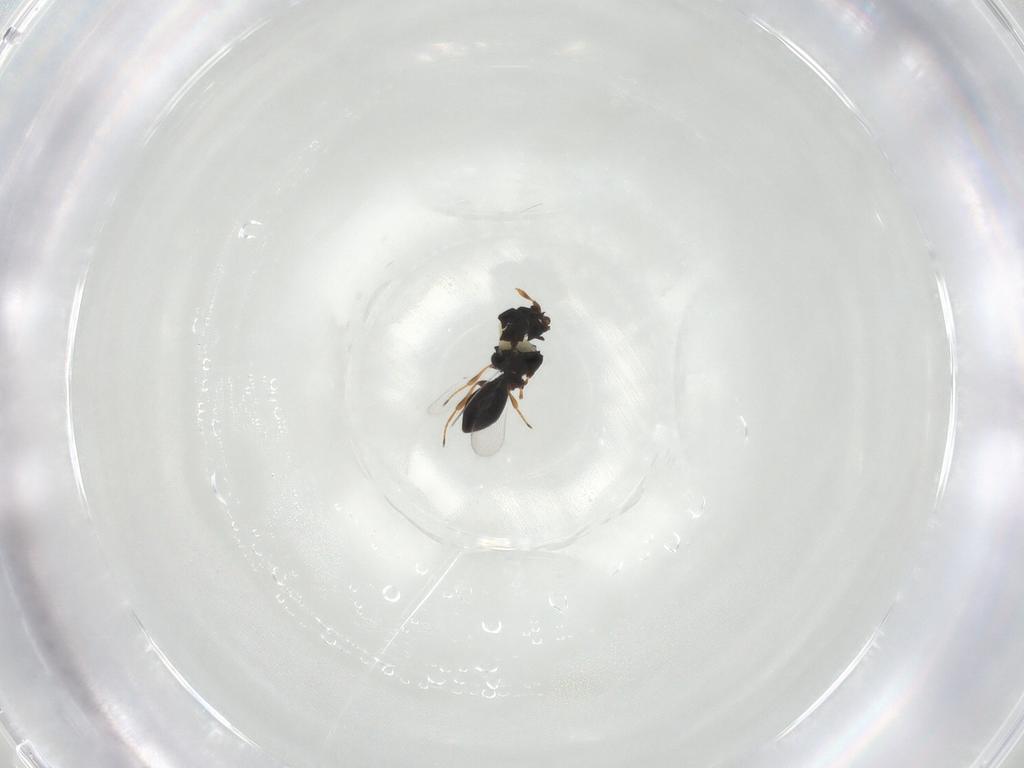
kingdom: Animalia
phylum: Arthropoda
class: Insecta
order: Hymenoptera
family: Platygastridae
